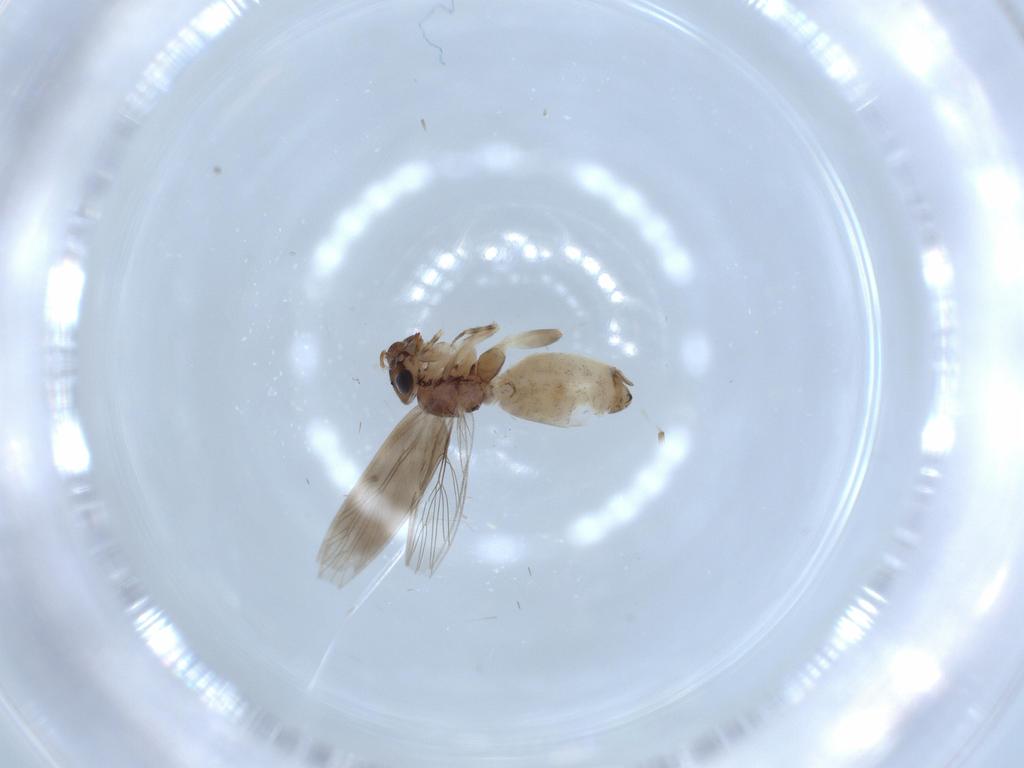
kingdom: Animalia
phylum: Arthropoda
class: Insecta
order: Psocodea
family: Lepidopsocidae
